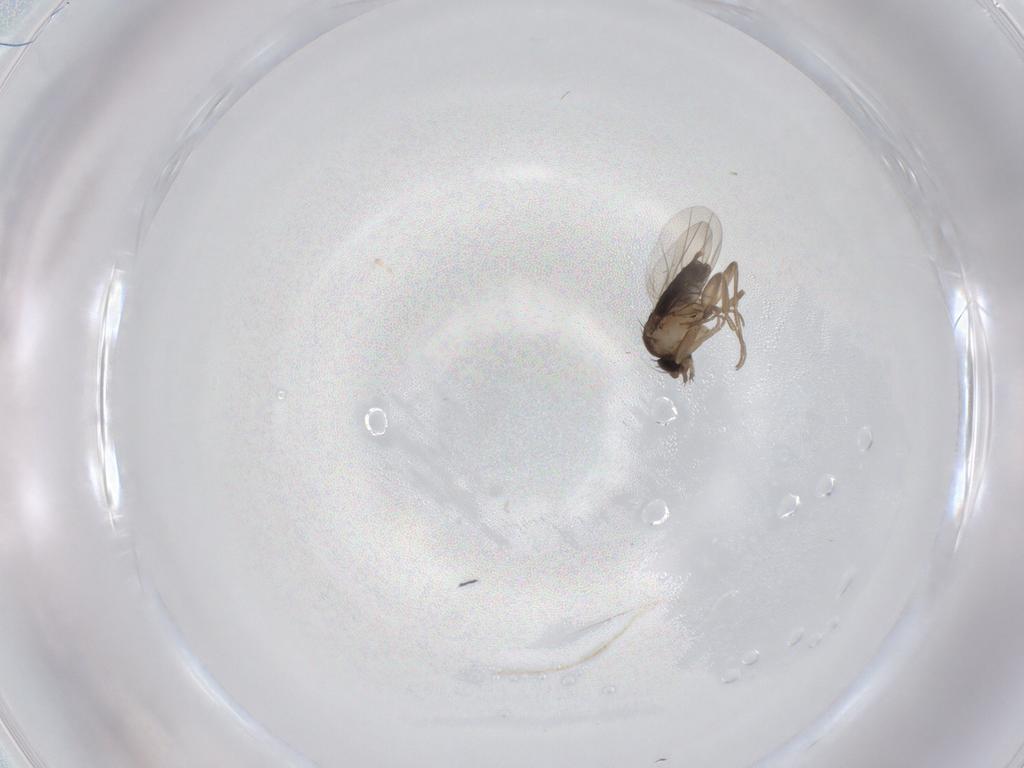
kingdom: Animalia
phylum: Arthropoda
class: Insecta
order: Diptera
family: Phoridae
